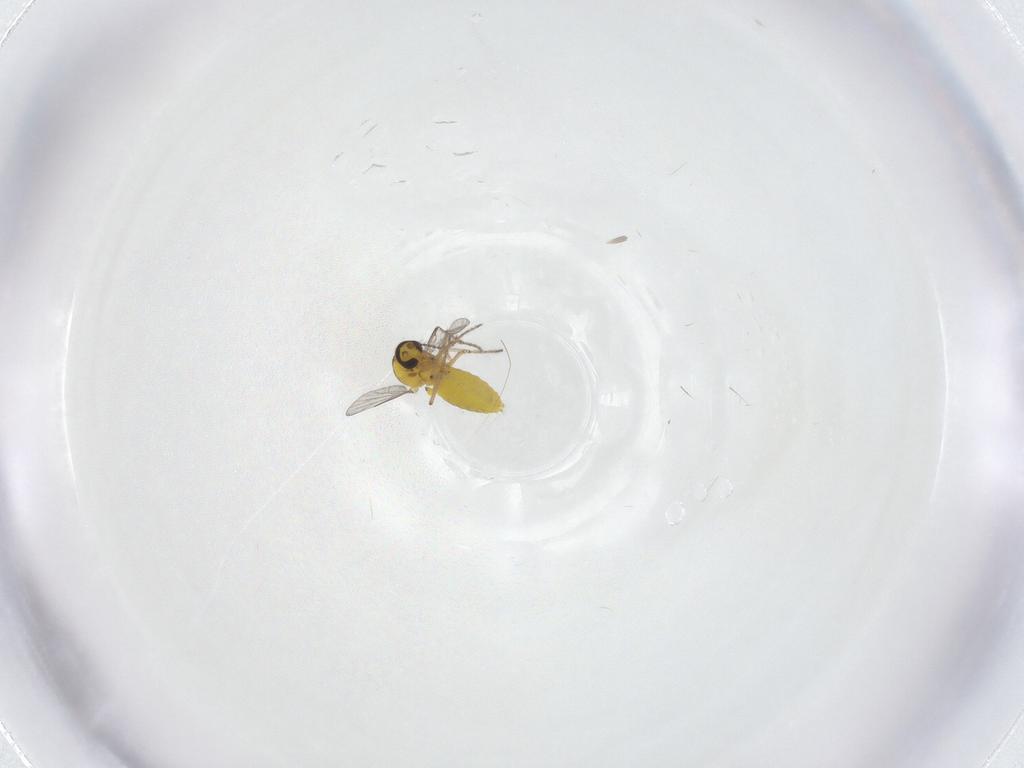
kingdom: Animalia
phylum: Arthropoda
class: Insecta
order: Diptera
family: Ceratopogonidae
